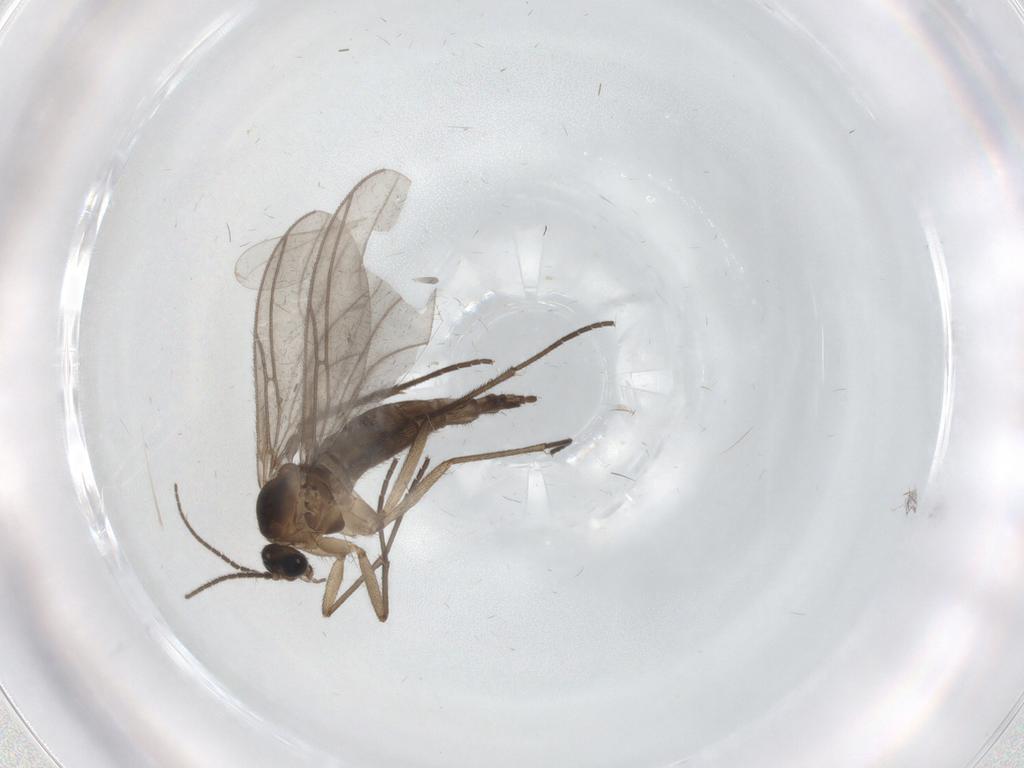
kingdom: Animalia
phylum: Arthropoda
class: Insecta
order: Diptera
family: Cecidomyiidae
